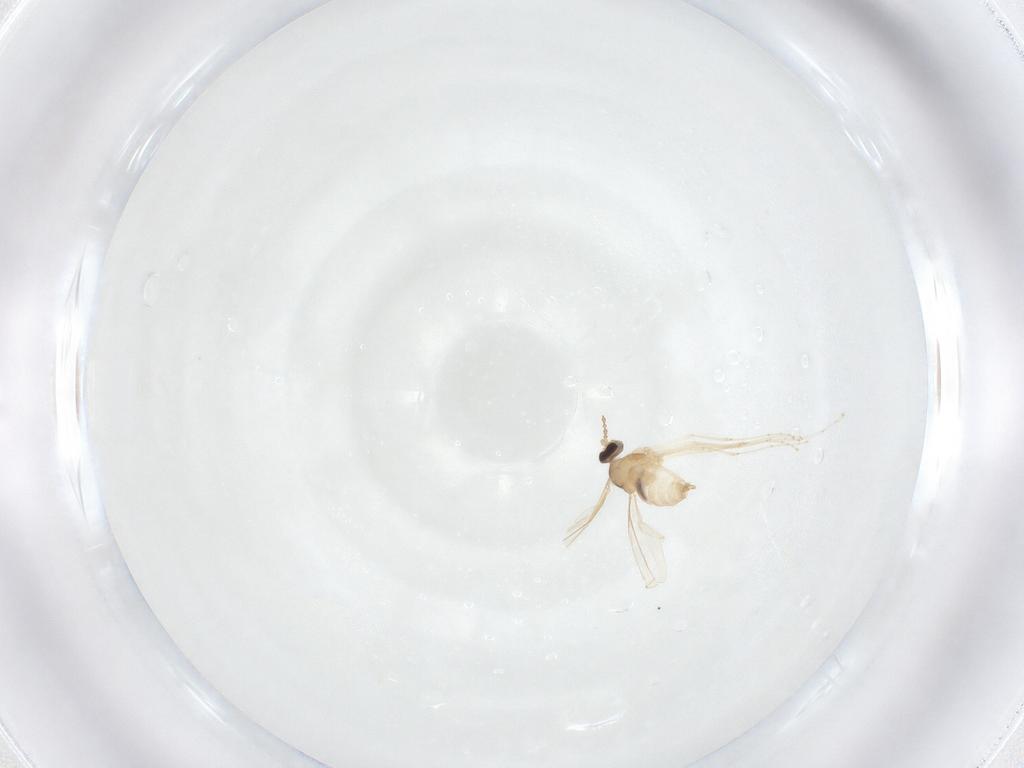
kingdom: Animalia
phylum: Arthropoda
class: Insecta
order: Diptera
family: Cecidomyiidae
